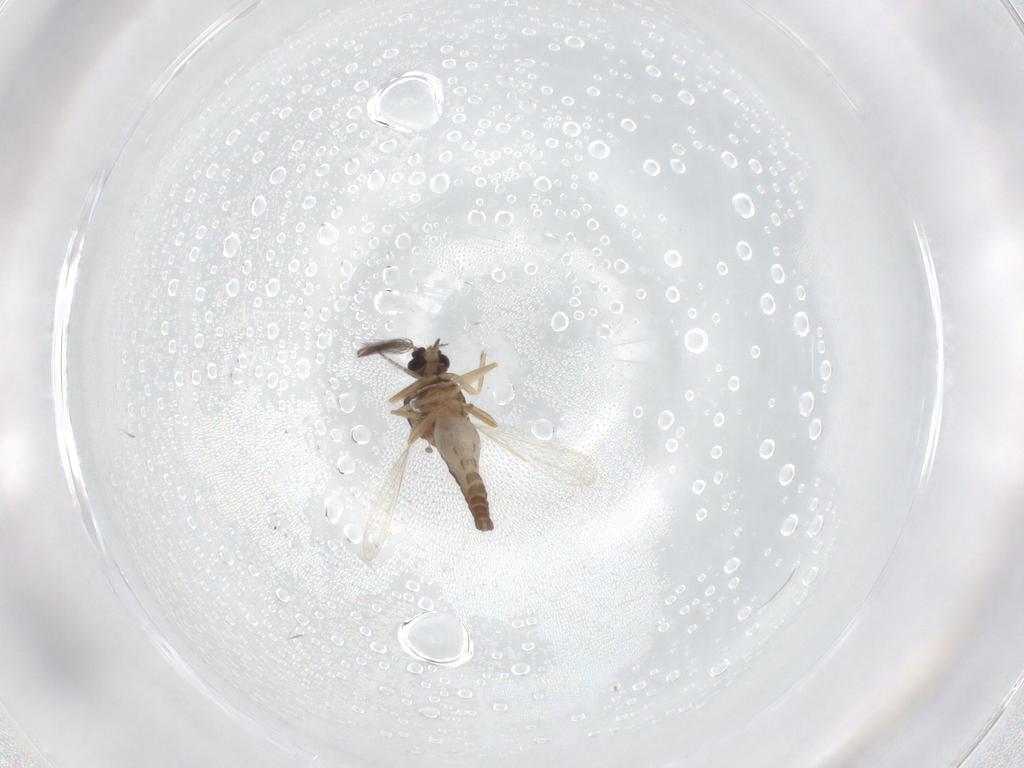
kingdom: Animalia
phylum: Arthropoda
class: Insecta
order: Diptera
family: Ceratopogonidae
